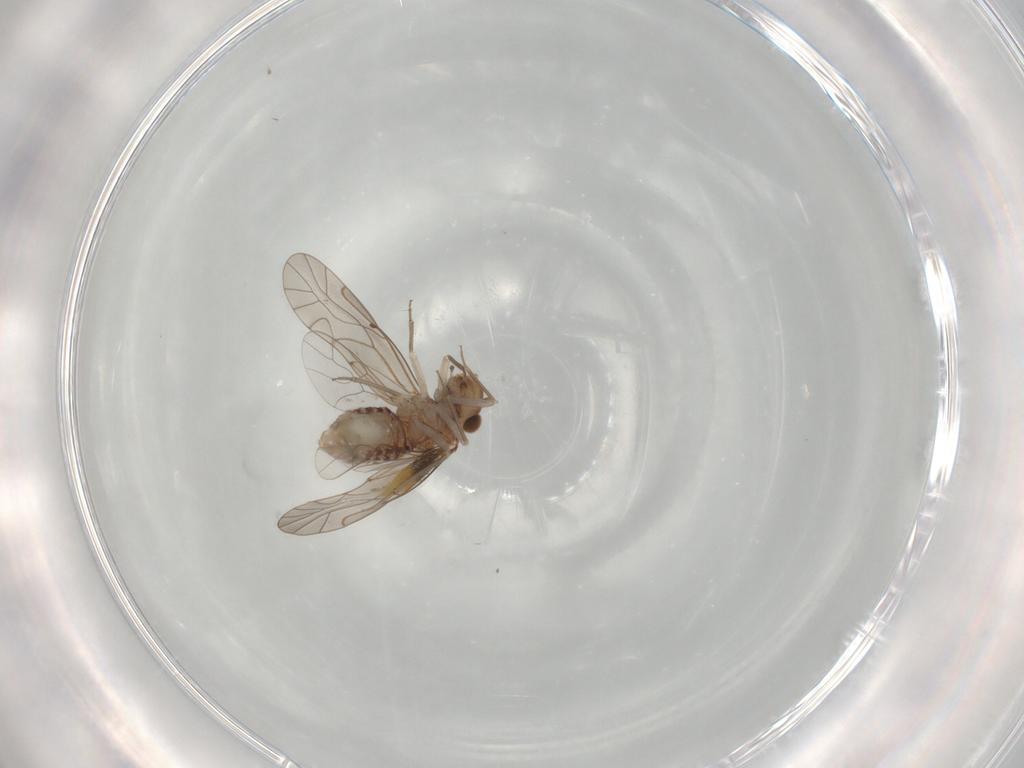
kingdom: Animalia
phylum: Arthropoda
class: Insecta
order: Psocodea
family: Lachesillidae
